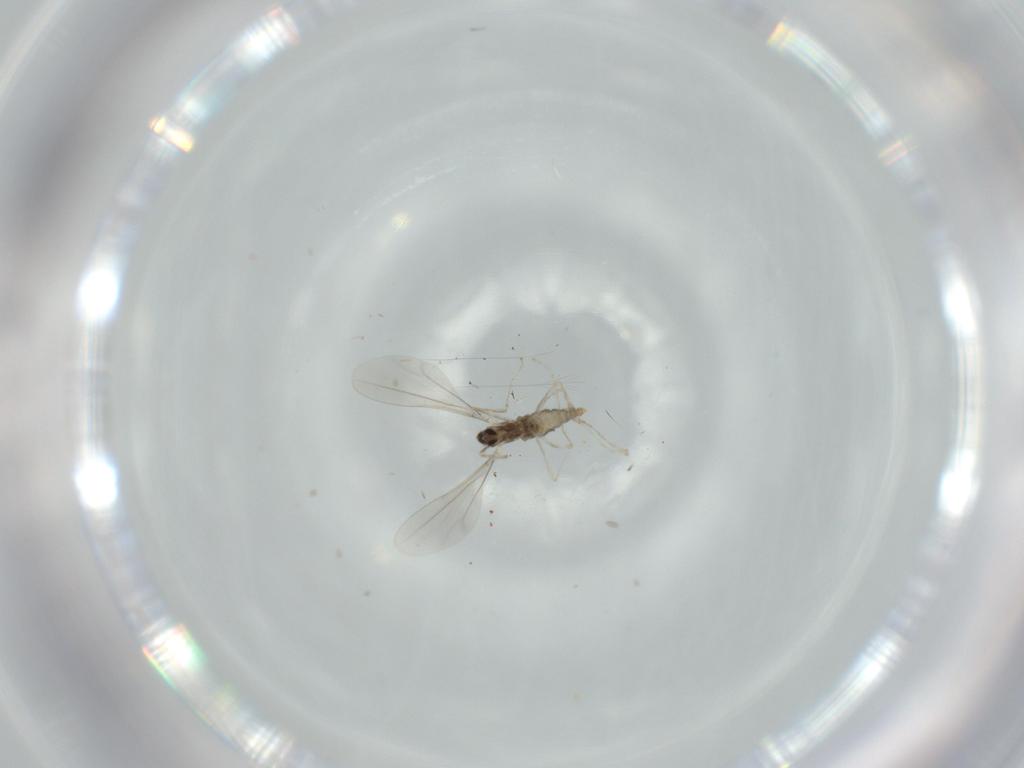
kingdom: Animalia
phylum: Arthropoda
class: Insecta
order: Diptera
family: Cecidomyiidae
